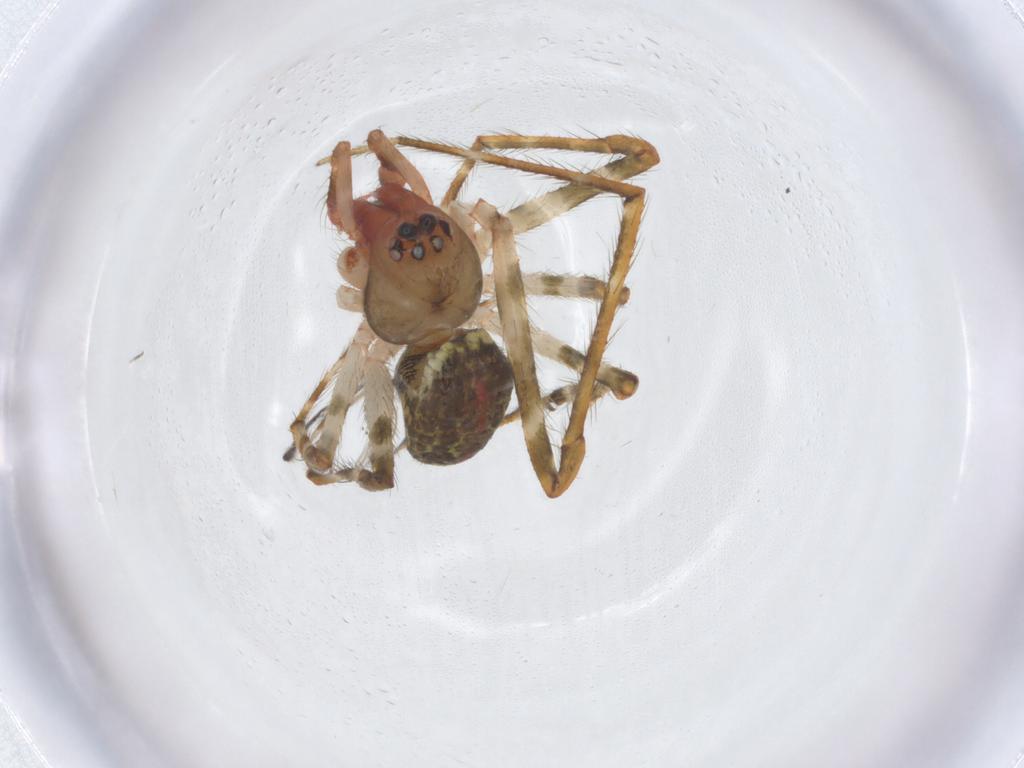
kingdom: Animalia
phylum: Arthropoda
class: Arachnida
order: Araneae
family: Theridiidae
